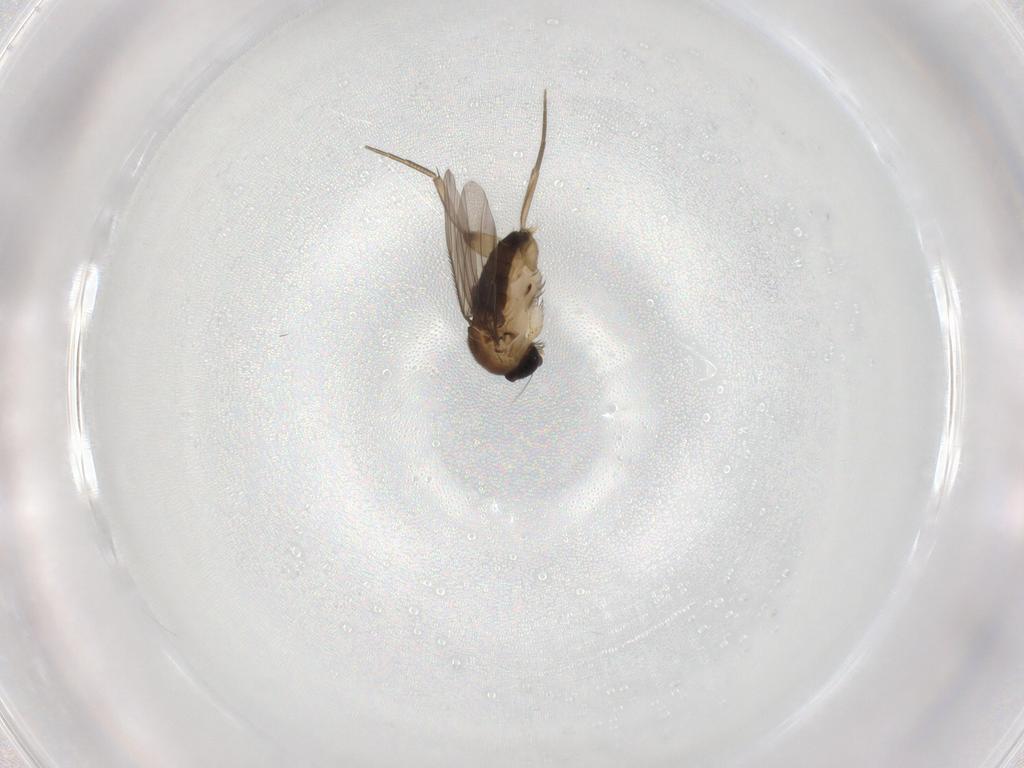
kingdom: Animalia
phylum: Arthropoda
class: Insecta
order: Diptera
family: Phoridae
